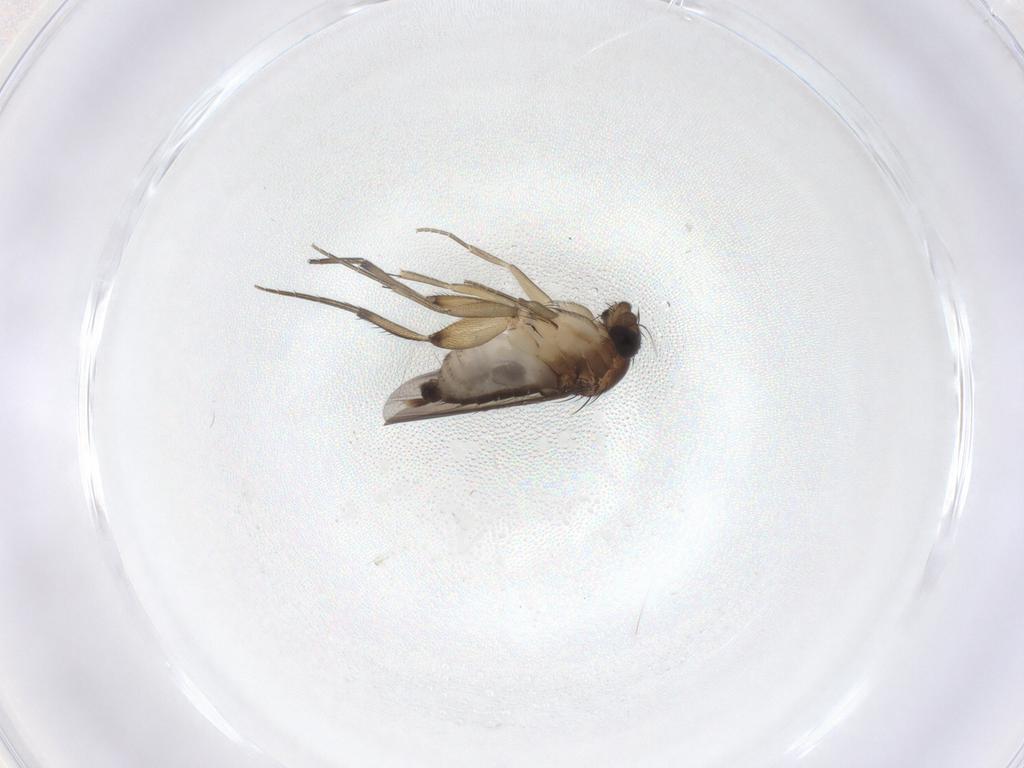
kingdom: Animalia
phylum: Arthropoda
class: Insecta
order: Diptera
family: Phoridae
